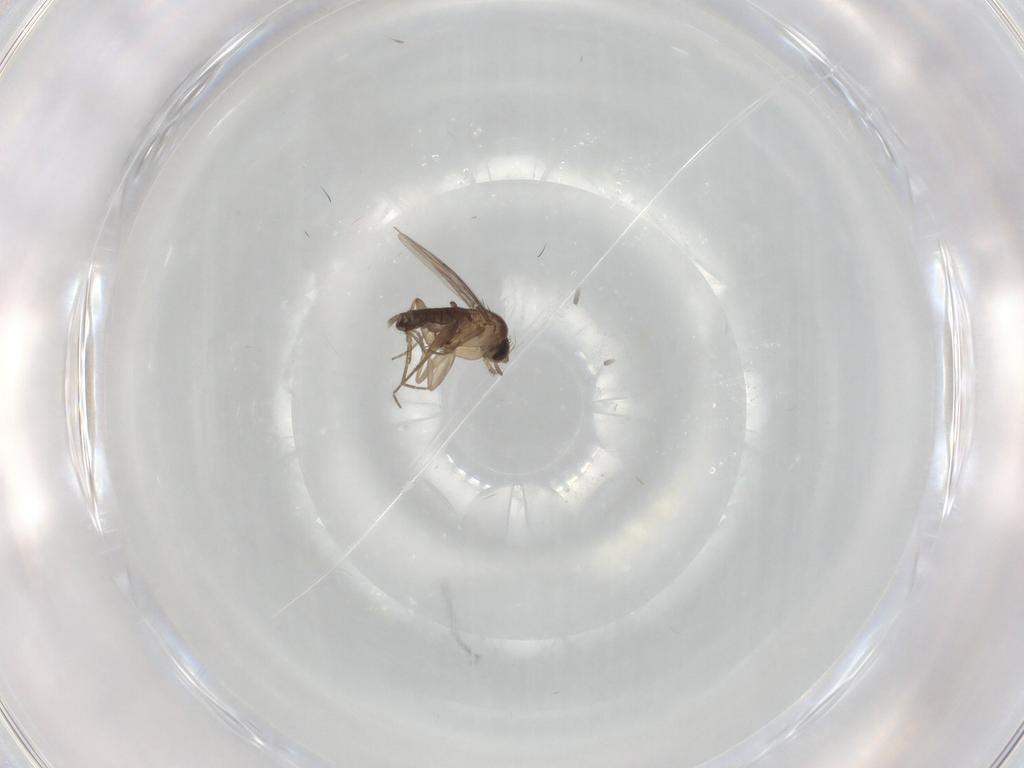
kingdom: Animalia
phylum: Arthropoda
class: Insecta
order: Diptera
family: Phoridae
